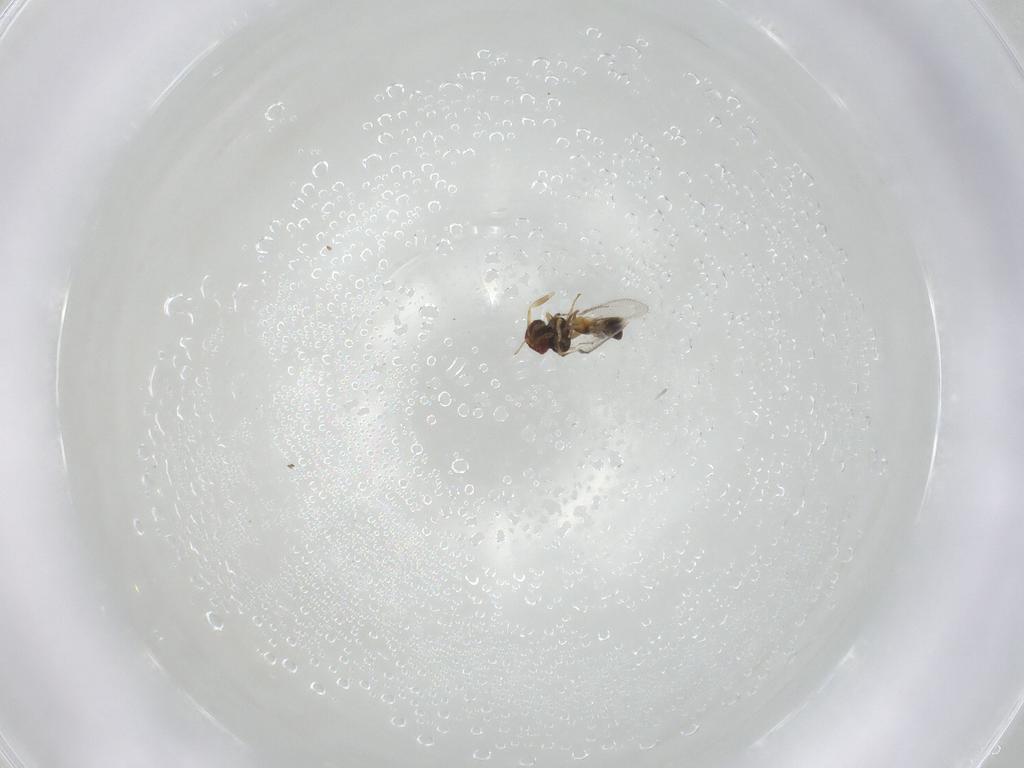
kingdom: Animalia
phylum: Arthropoda
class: Insecta
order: Hymenoptera
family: Eulophidae
